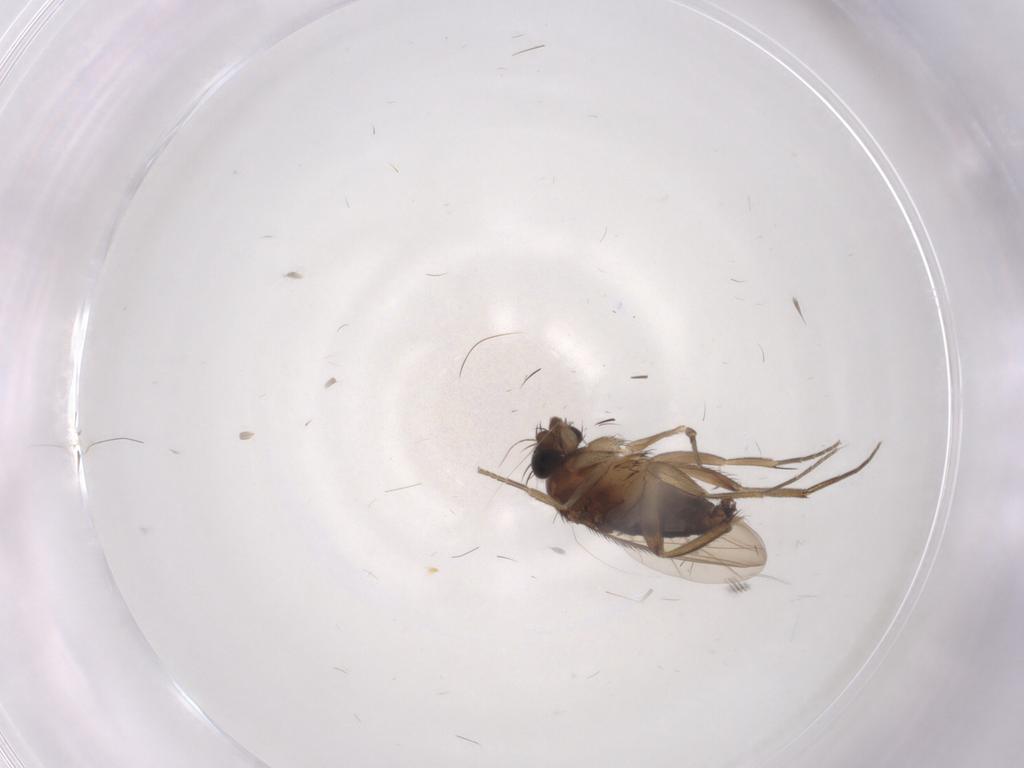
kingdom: Animalia
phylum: Arthropoda
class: Insecta
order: Diptera
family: Phoridae
